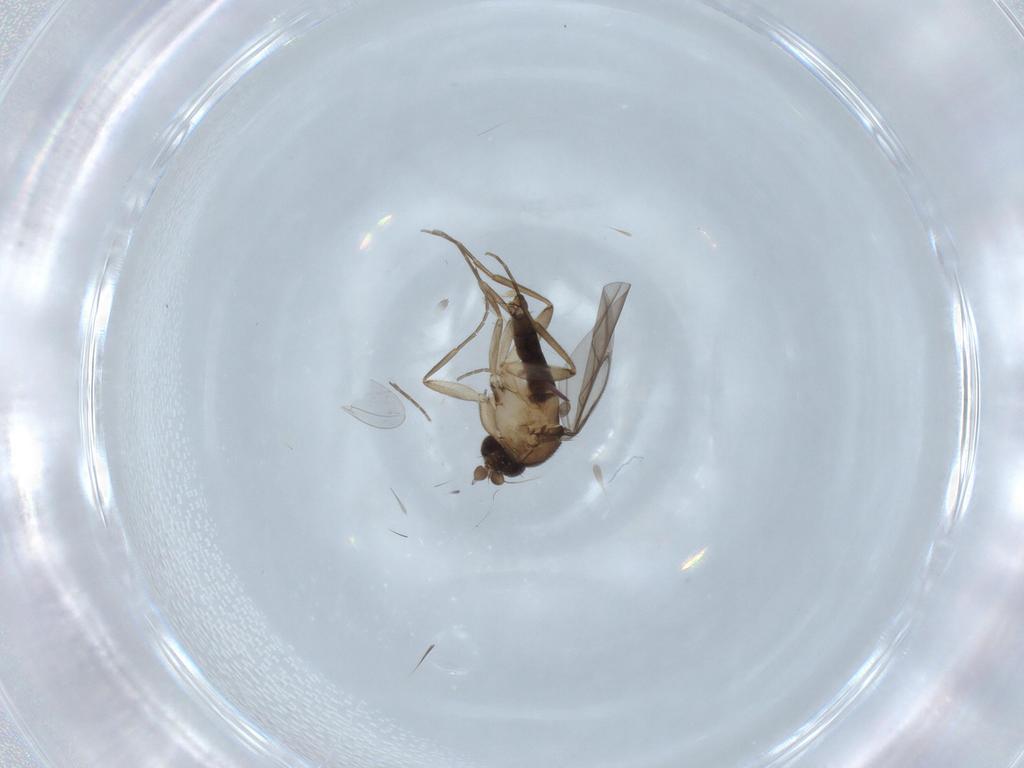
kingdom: Animalia
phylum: Arthropoda
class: Insecta
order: Diptera
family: Phoridae
